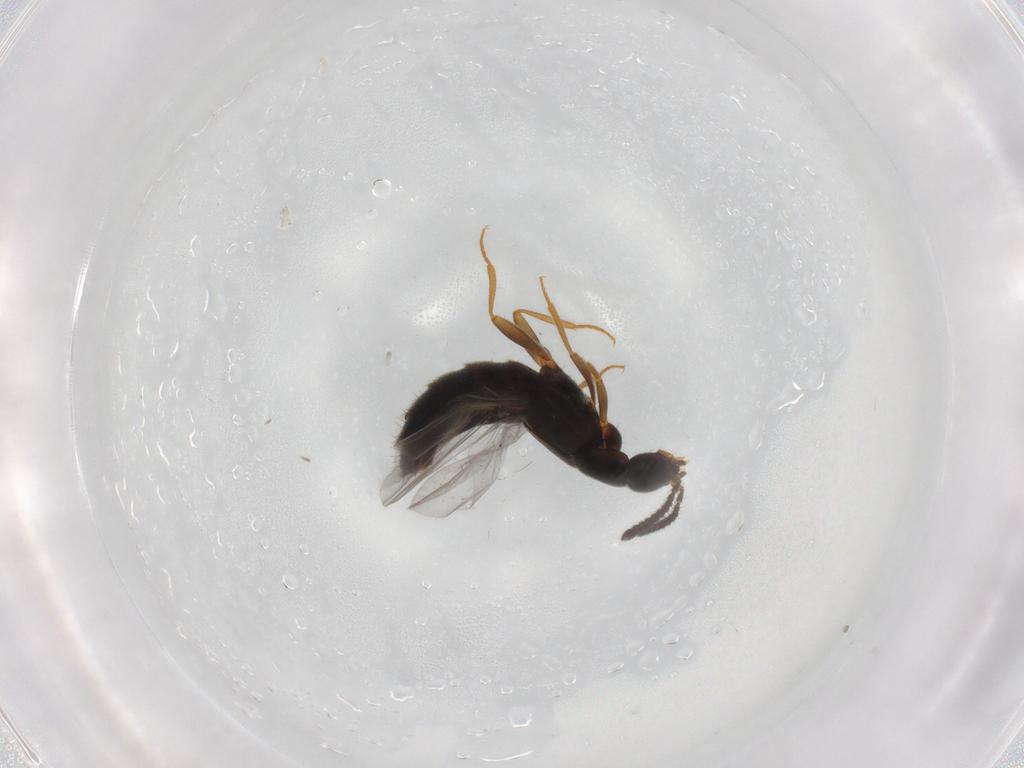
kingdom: Animalia
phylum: Arthropoda
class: Insecta
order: Coleoptera
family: Staphylinidae
